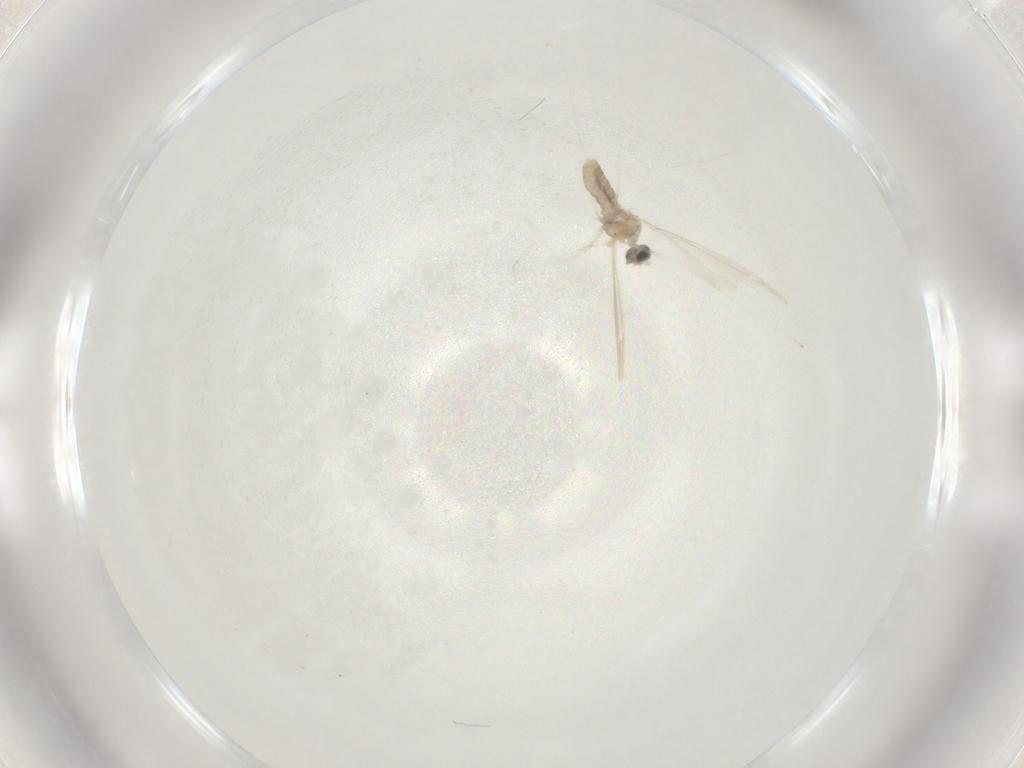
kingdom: Animalia
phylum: Arthropoda
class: Insecta
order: Diptera
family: Cecidomyiidae
